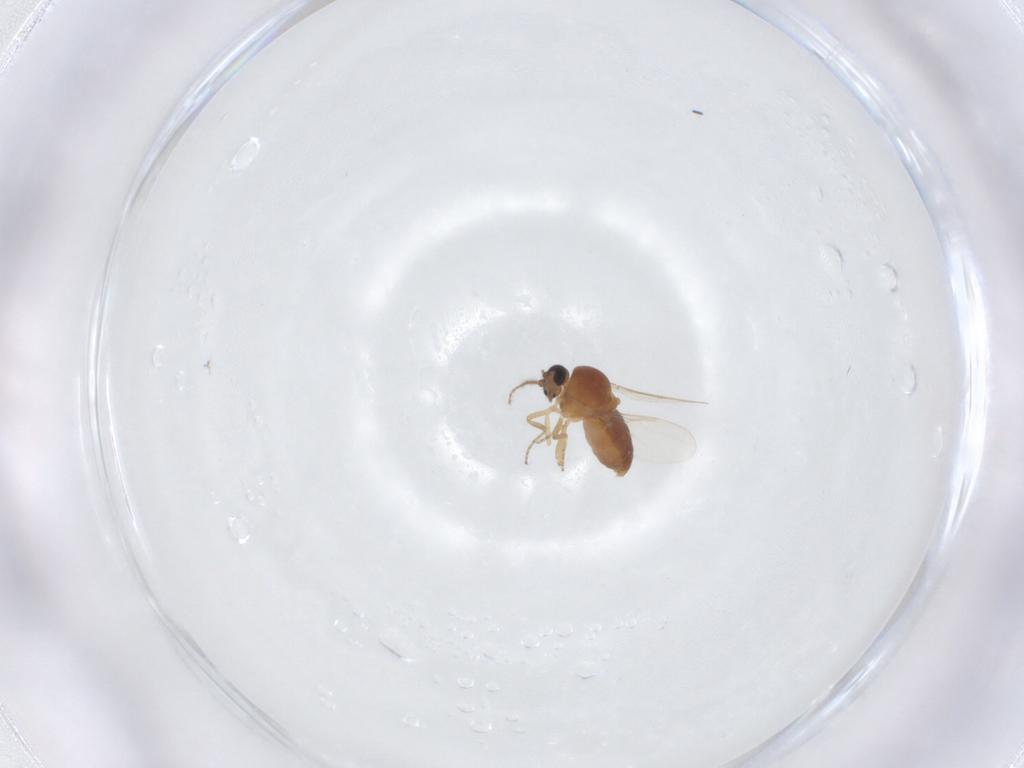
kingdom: Animalia
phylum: Arthropoda
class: Insecta
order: Diptera
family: Ceratopogonidae
